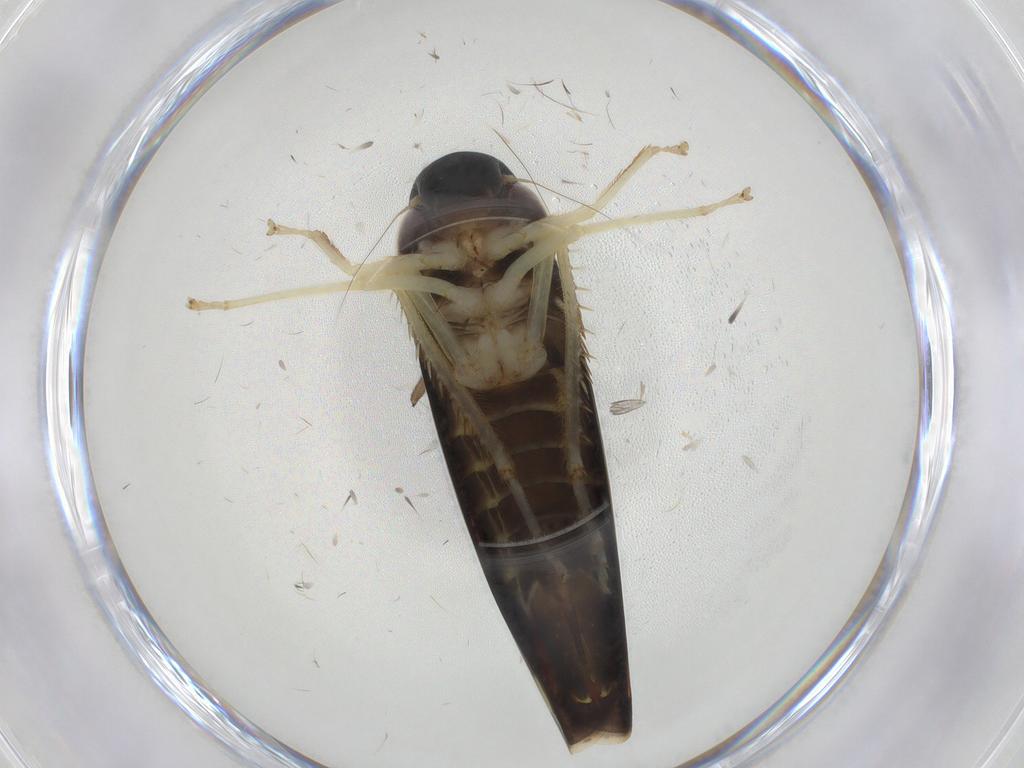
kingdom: Animalia
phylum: Arthropoda
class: Insecta
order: Hemiptera
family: Cicadellidae
